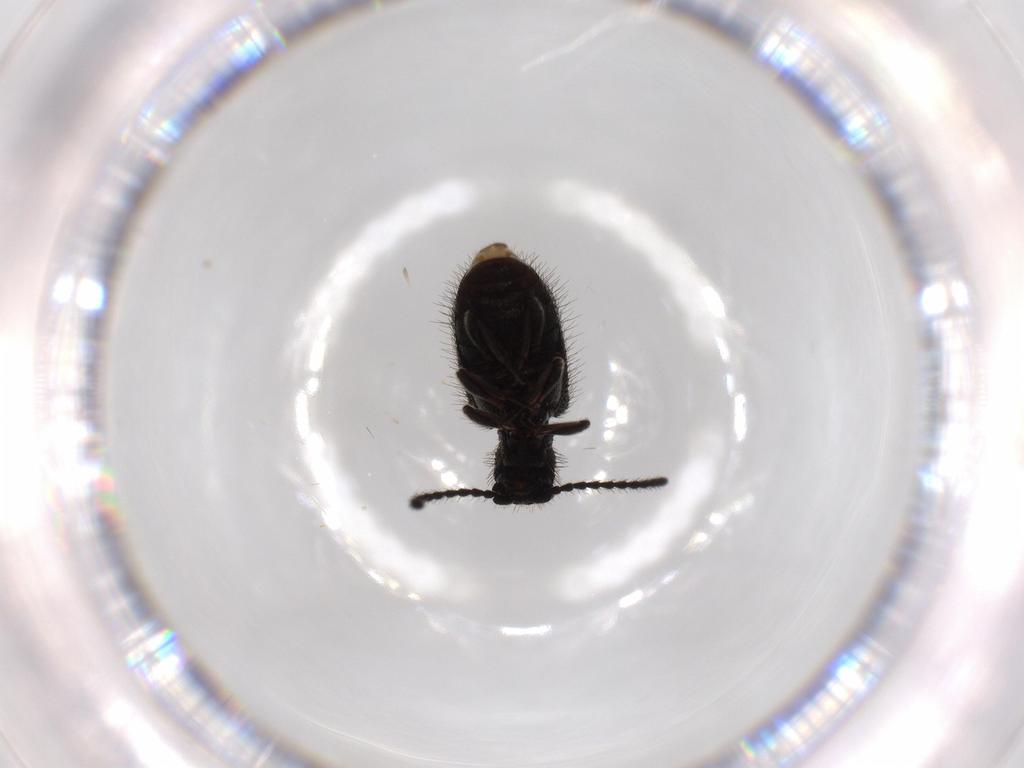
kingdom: Animalia
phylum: Arthropoda
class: Insecta
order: Coleoptera
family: Ptinidae
